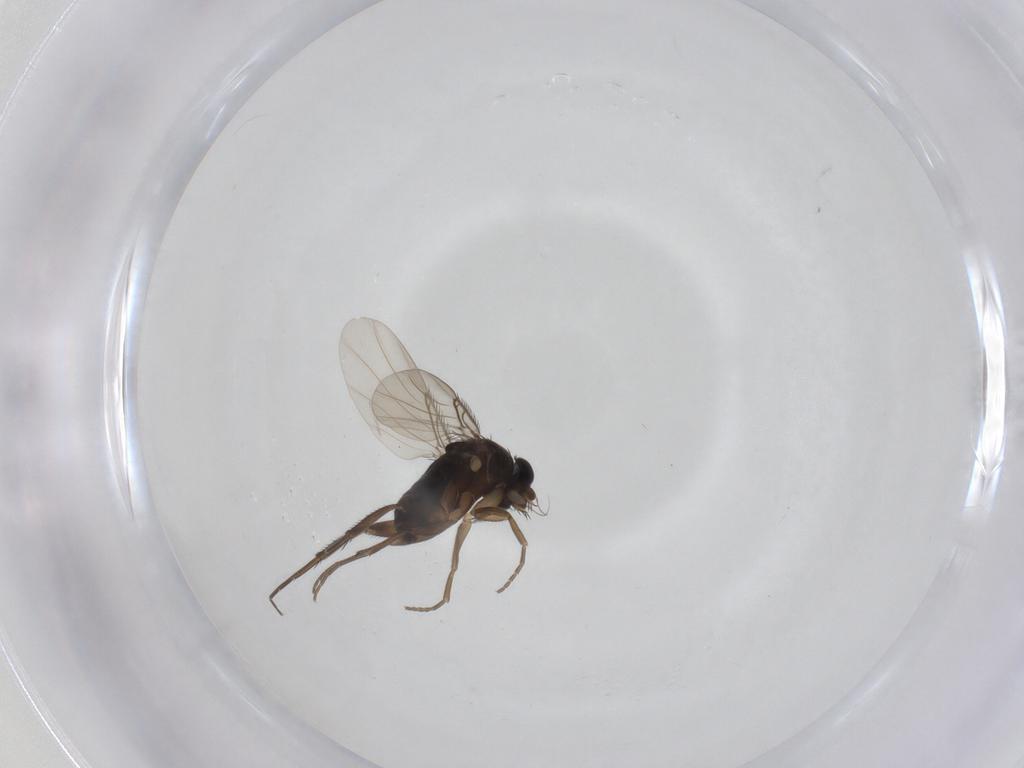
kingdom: Animalia
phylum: Arthropoda
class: Insecta
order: Diptera
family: Phoridae
